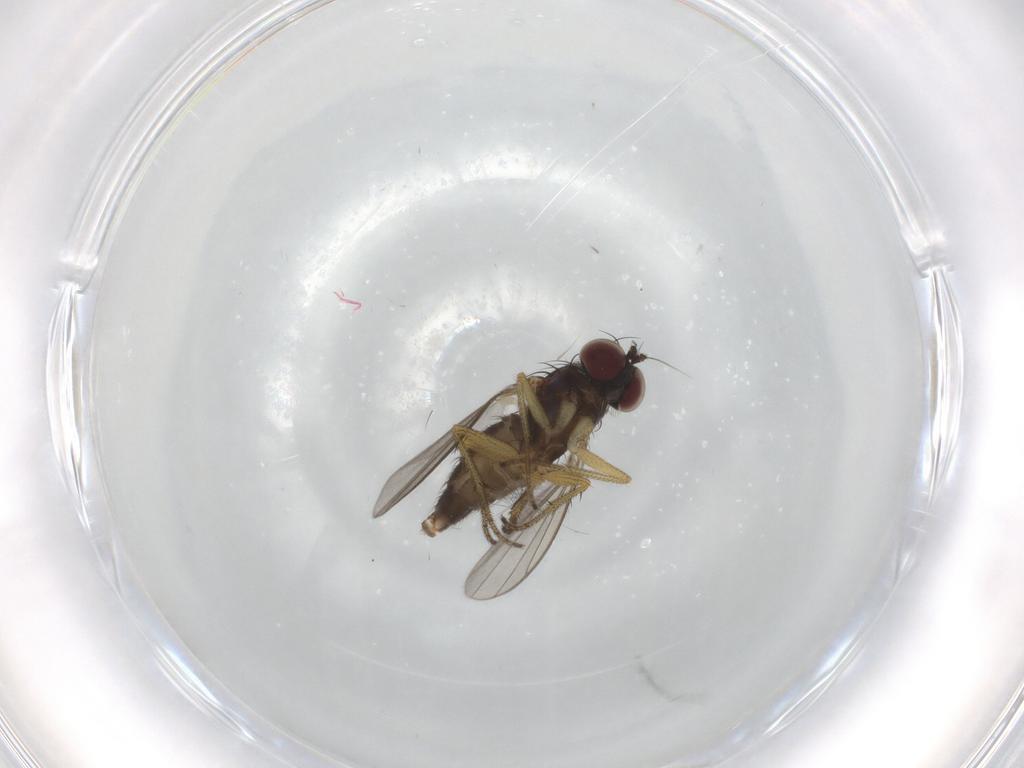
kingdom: Animalia
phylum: Arthropoda
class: Insecta
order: Diptera
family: Dolichopodidae
